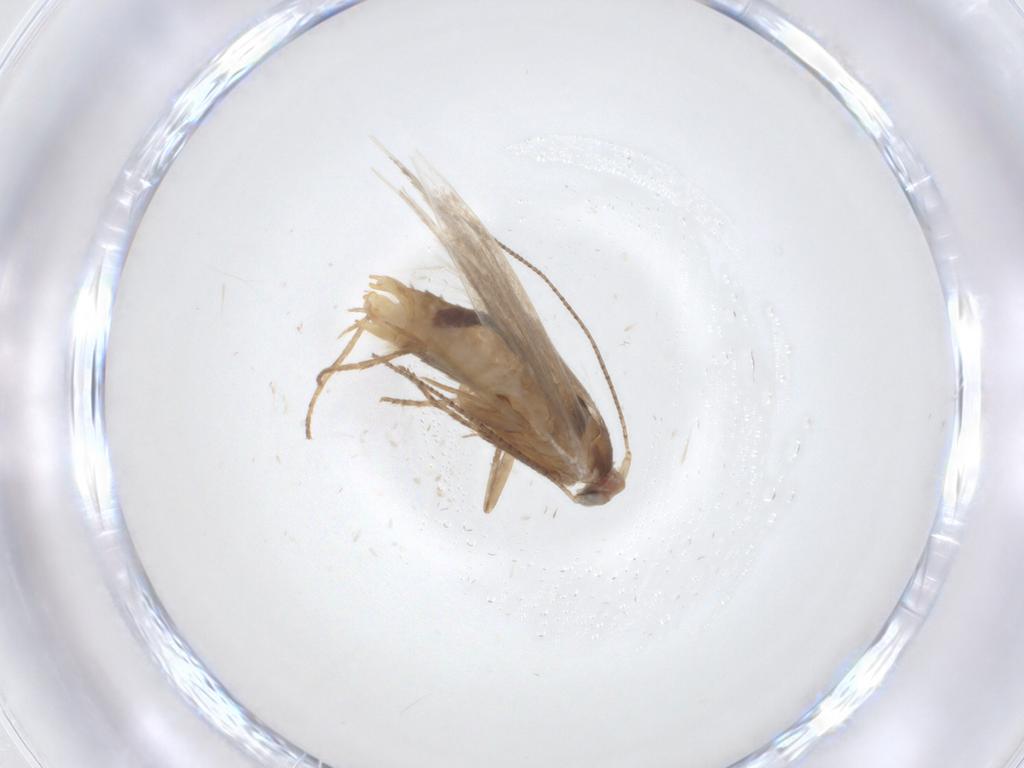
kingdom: Animalia
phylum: Arthropoda
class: Insecta
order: Lepidoptera
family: Bucculatricidae
